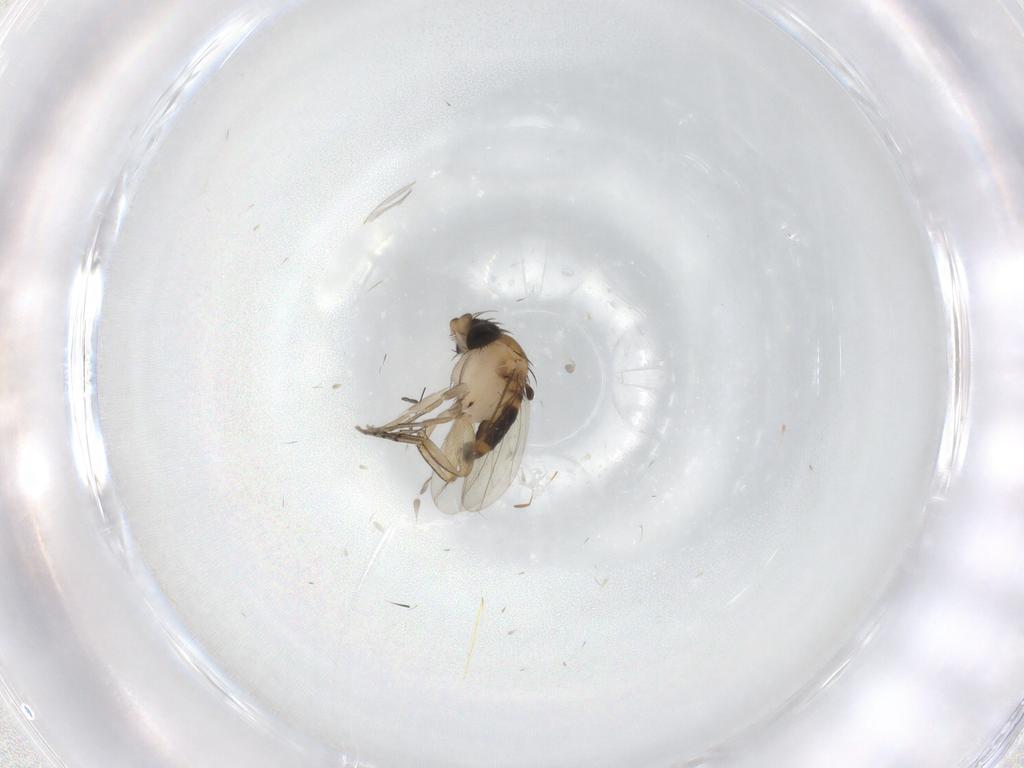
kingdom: Animalia
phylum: Arthropoda
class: Insecta
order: Diptera
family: Phoridae
